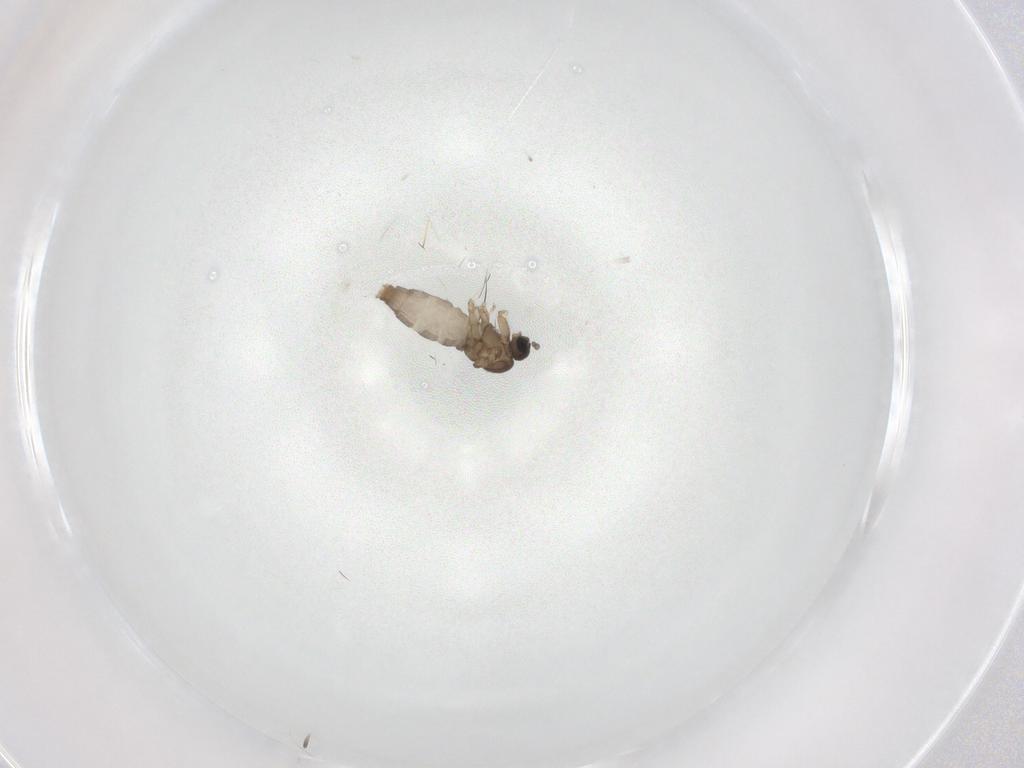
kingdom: Animalia
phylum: Arthropoda
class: Insecta
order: Diptera
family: Sciaridae
